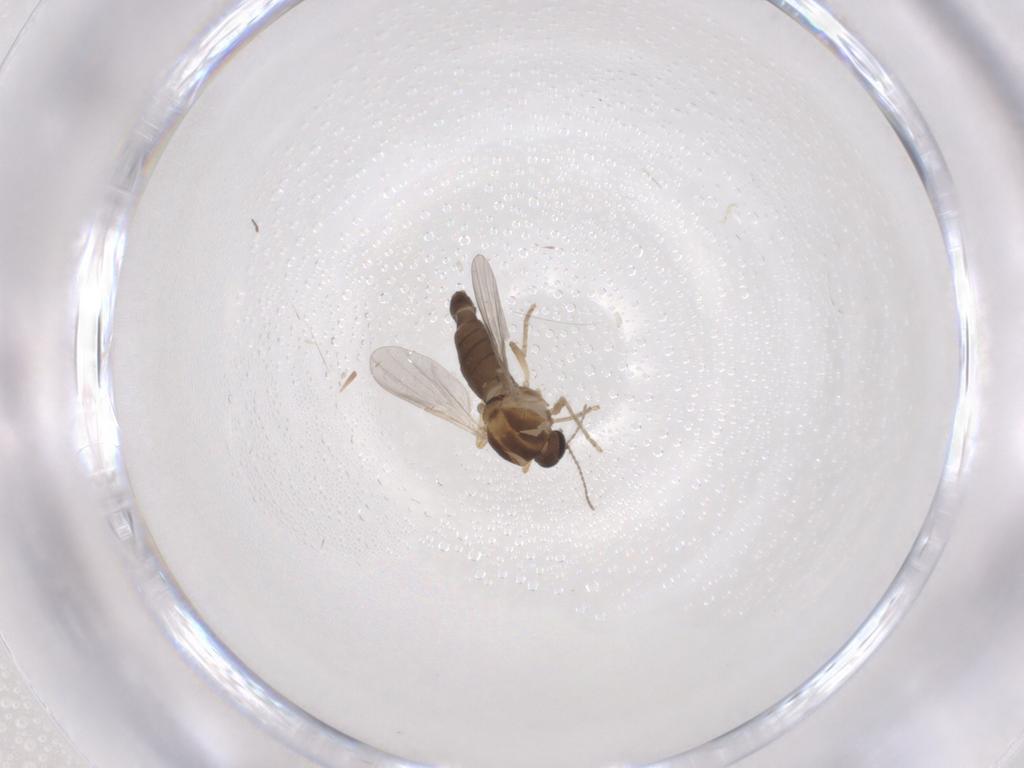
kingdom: Animalia
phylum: Arthropoda
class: Insecta
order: Diptera
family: Ceratopogonidae
